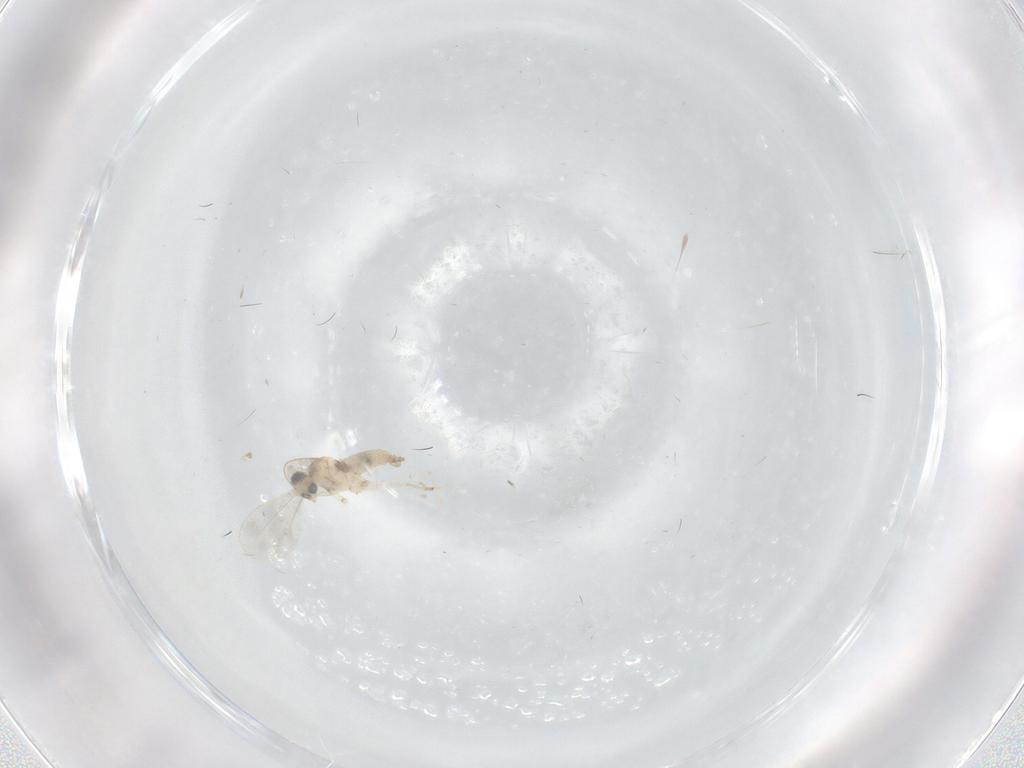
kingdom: Animalia
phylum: Arthropoda
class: Insecta
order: Diptera
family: Cecidomyiidae
